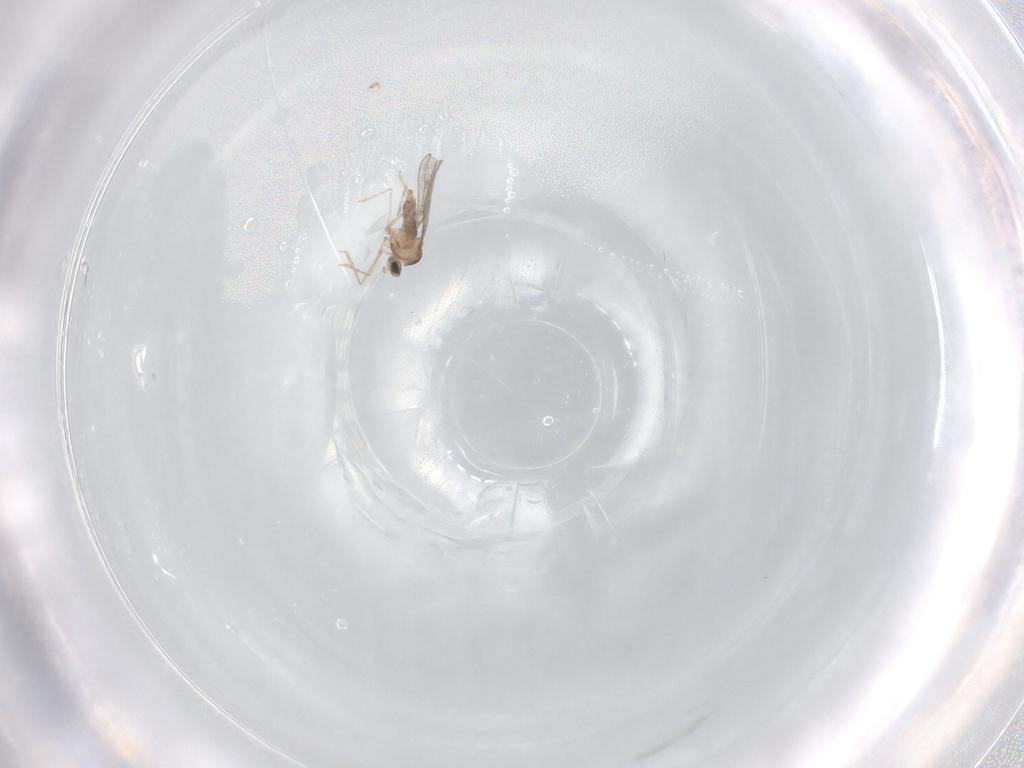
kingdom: Animalia
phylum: Arthropoda
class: Insecta
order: Diptera
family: Cecidomyiidae
